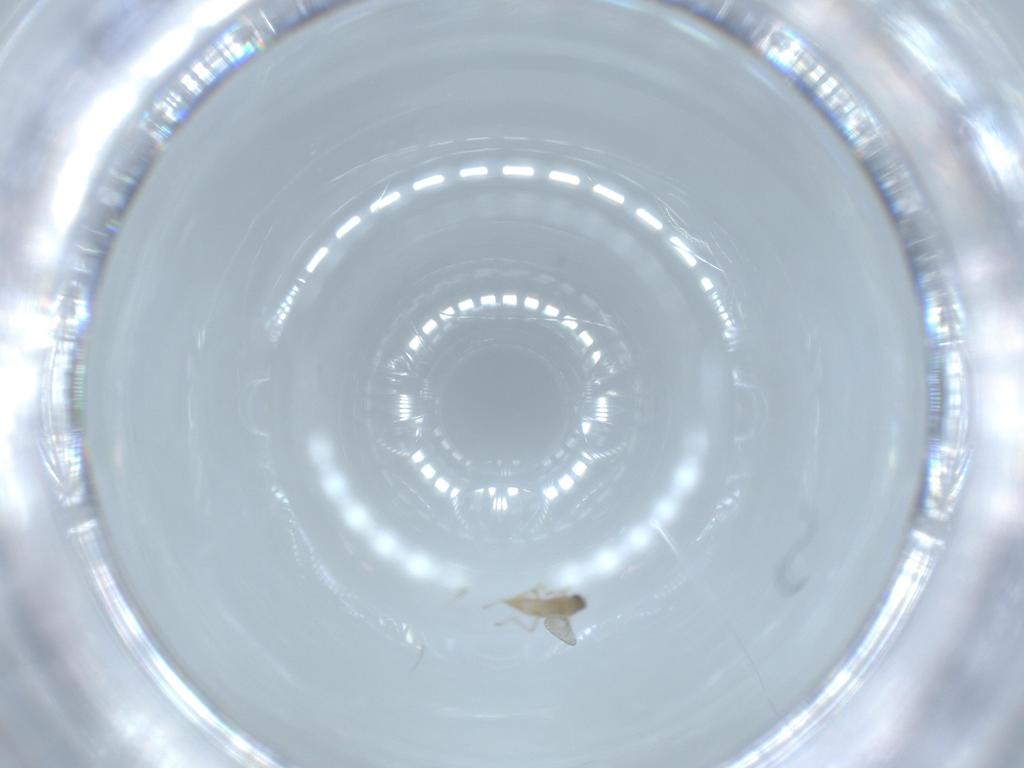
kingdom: Animalia
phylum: Arthropoda
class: Insecta
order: Diptera
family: Cecidomyiidae
